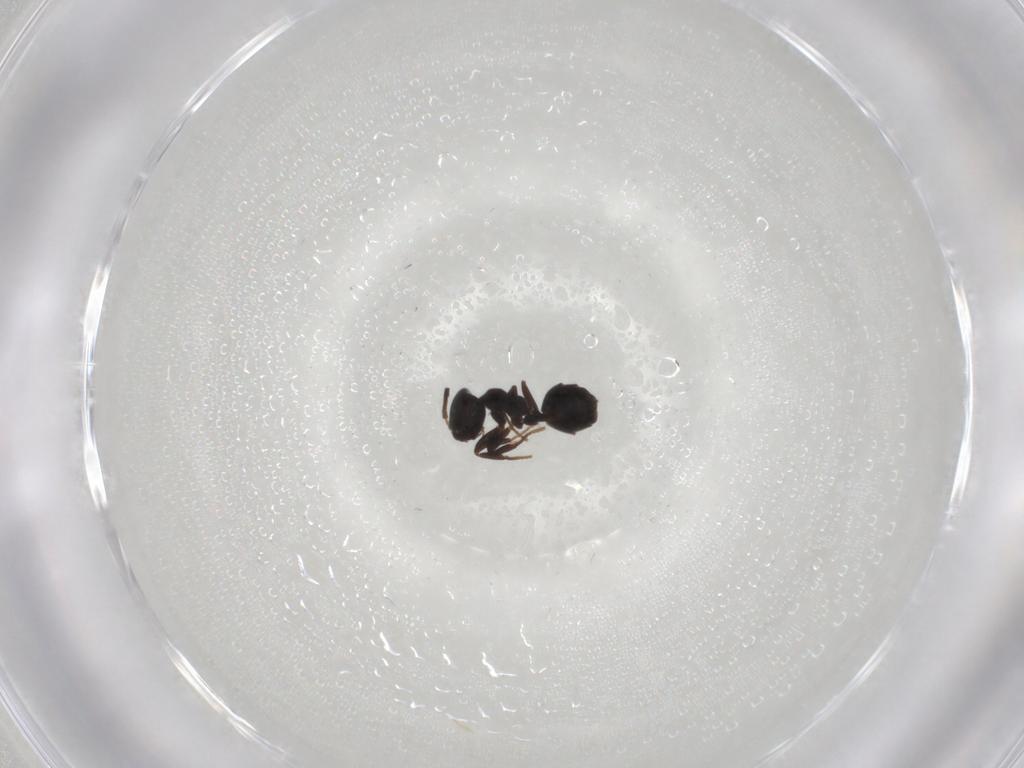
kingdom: Animalia
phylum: Arthropoda
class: Insecta
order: Hymenoptera
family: Formicidae
